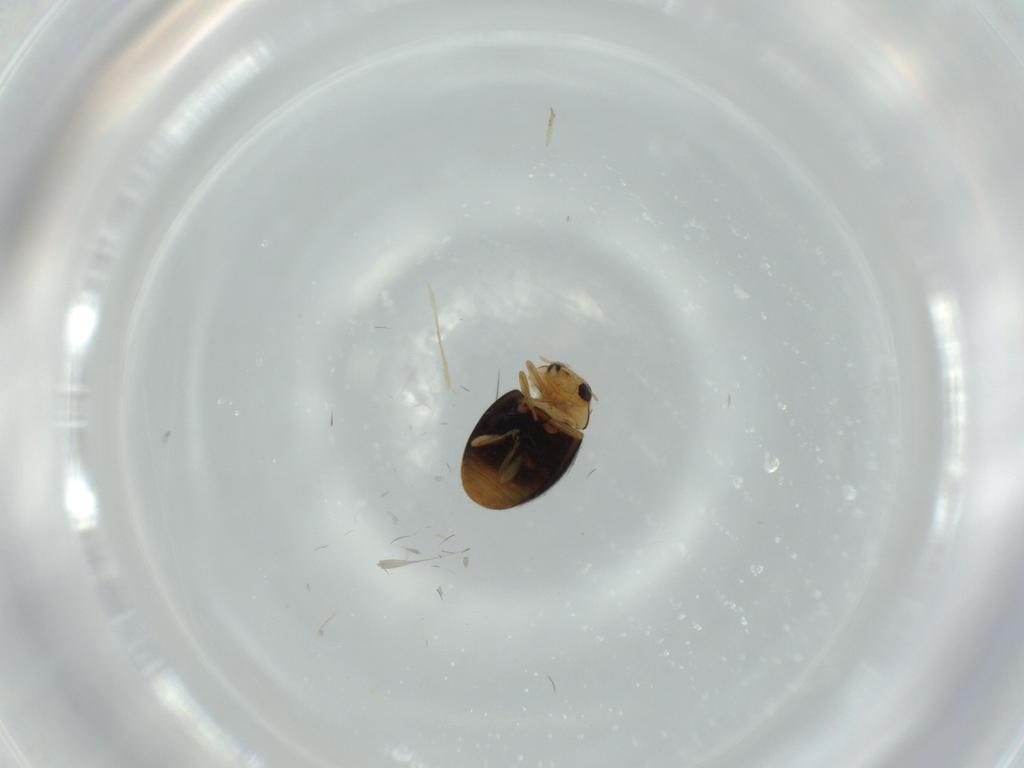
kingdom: Animalia
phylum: Arthropoda
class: Insecta
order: Coleoptera
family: Coccinellidae
